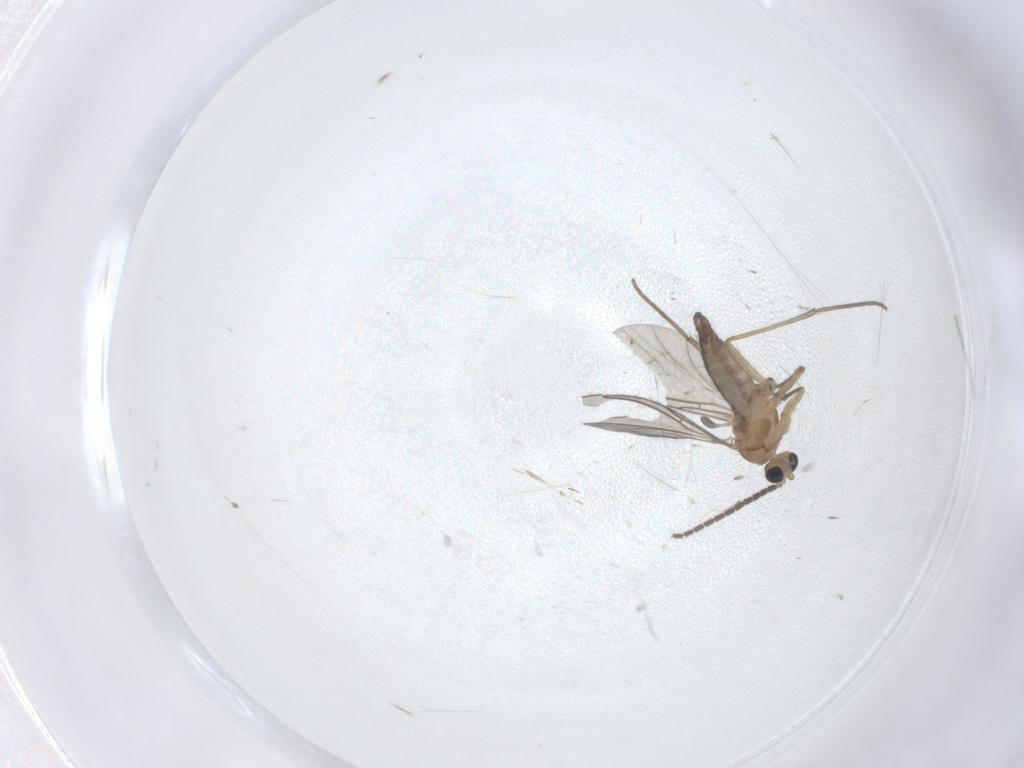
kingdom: Animalia
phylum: Arthropoda
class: Insecta
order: Diptera
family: Sciaridae
